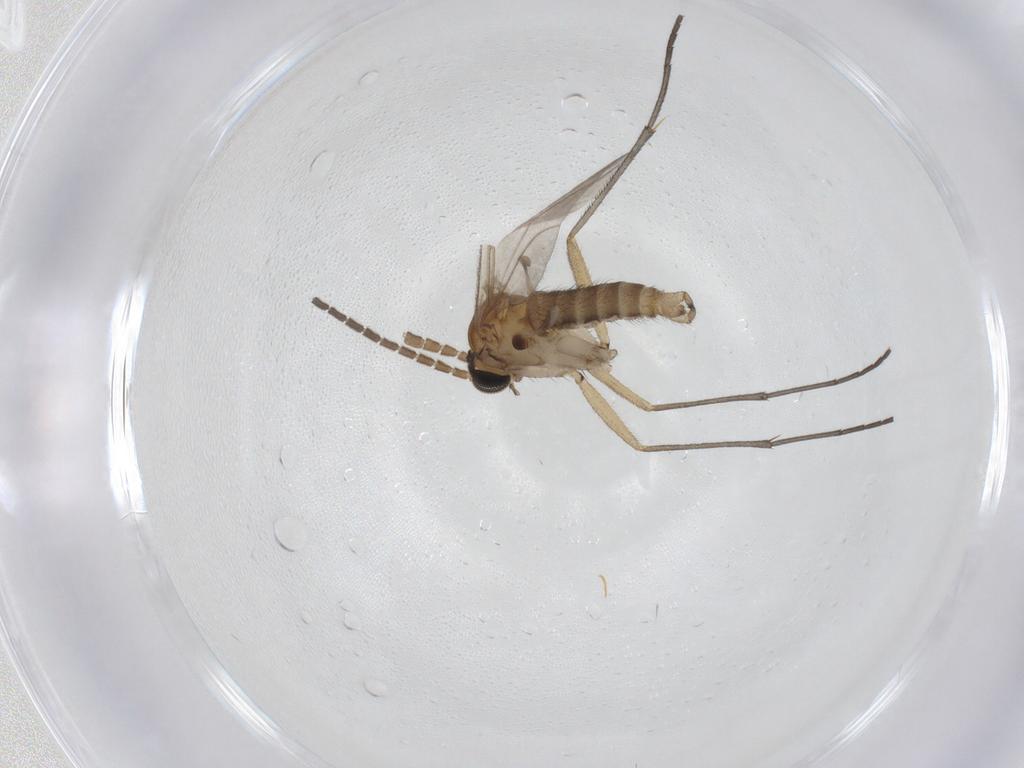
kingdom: Animalia
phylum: Arthropoda
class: Insecta
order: Diptera
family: Sciaridae
